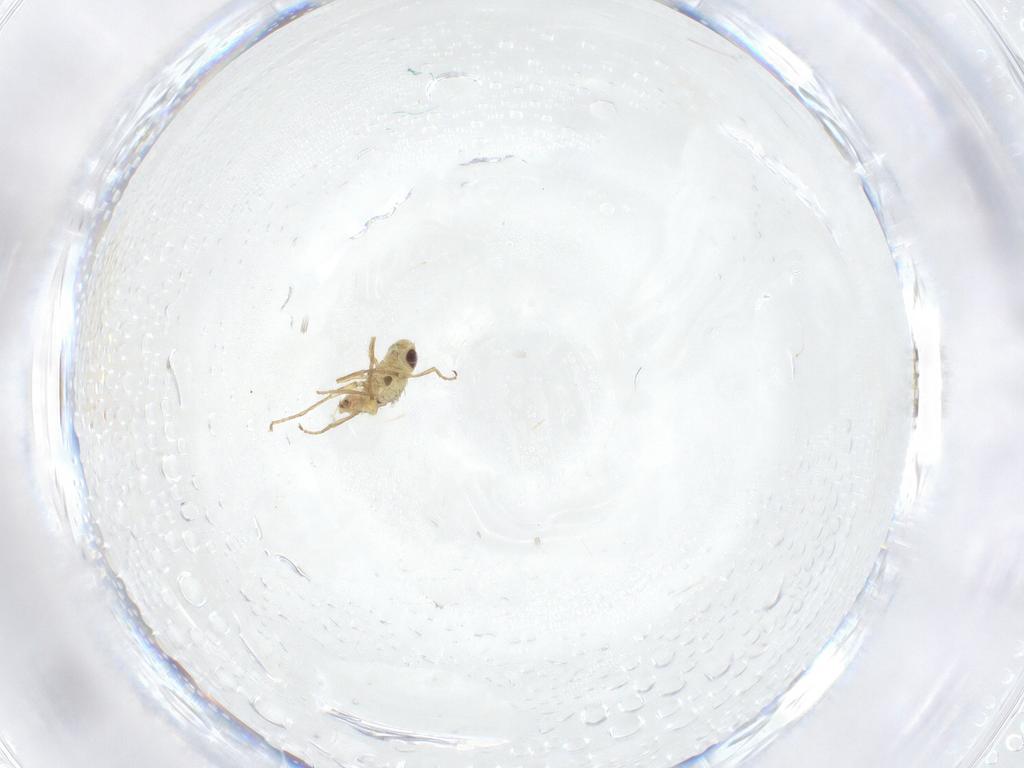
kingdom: Animalia
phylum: Arthropoda
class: Insecta
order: Diptera
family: Agromyzidae
